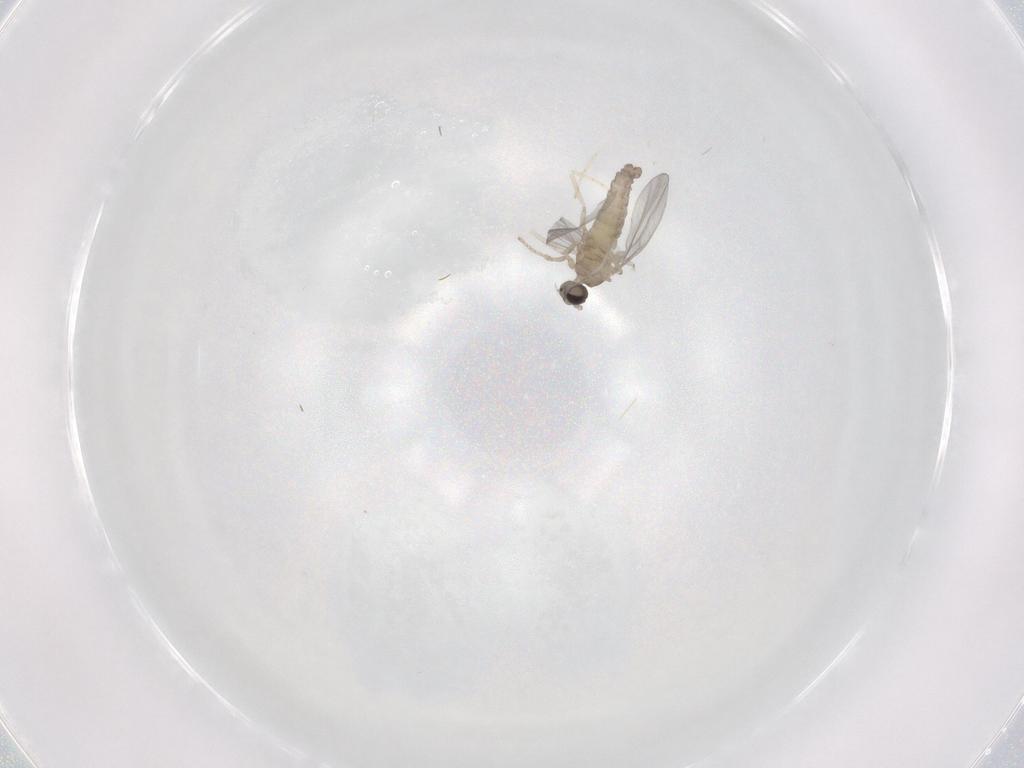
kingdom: Animalia
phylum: Arthropoda
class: Insecta
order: Diptera
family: Cecidomyiidae
